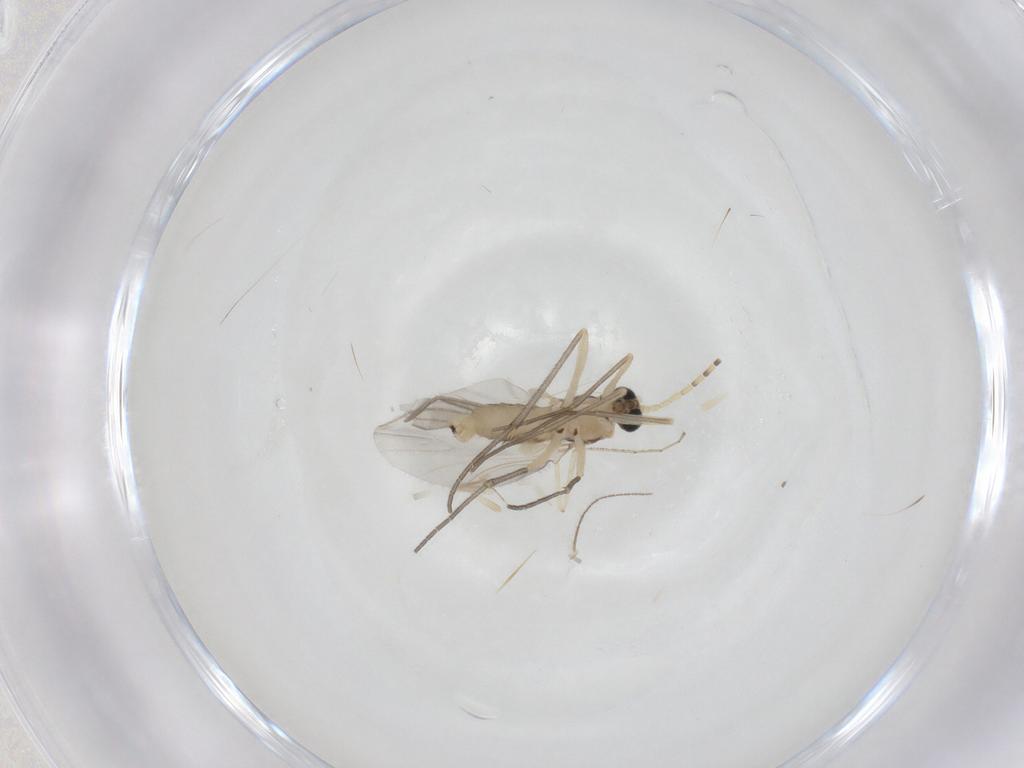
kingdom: Animalia
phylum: Arthropoda
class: Insecta
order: Diptera
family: Sciaridae
